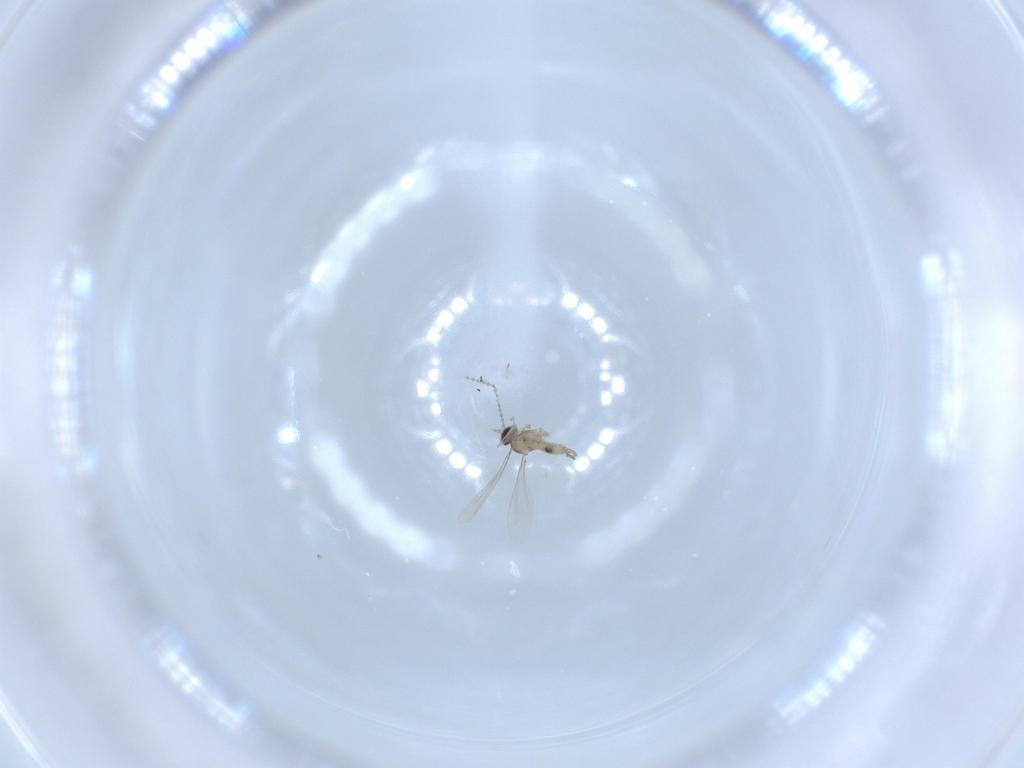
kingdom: Animalia
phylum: Arthropoda
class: Insecta
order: Diptera
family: Cecidomyiidae
